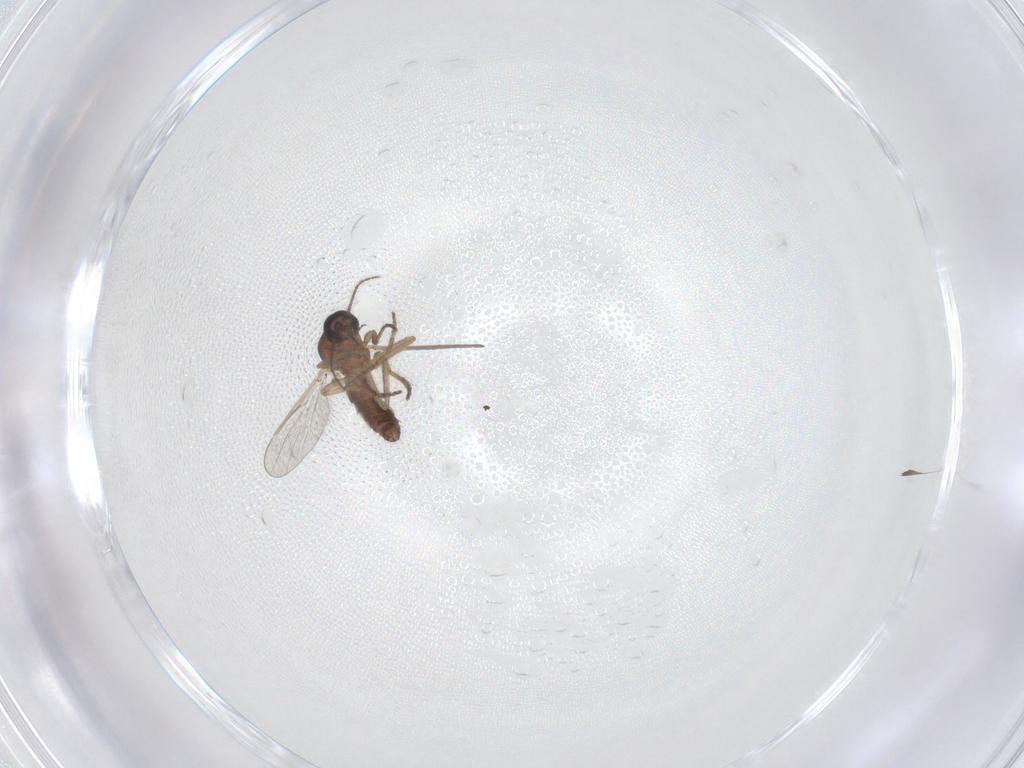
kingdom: Animalia
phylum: Arthropoda
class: Insecta
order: Diptera
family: Ceratopogonidae
